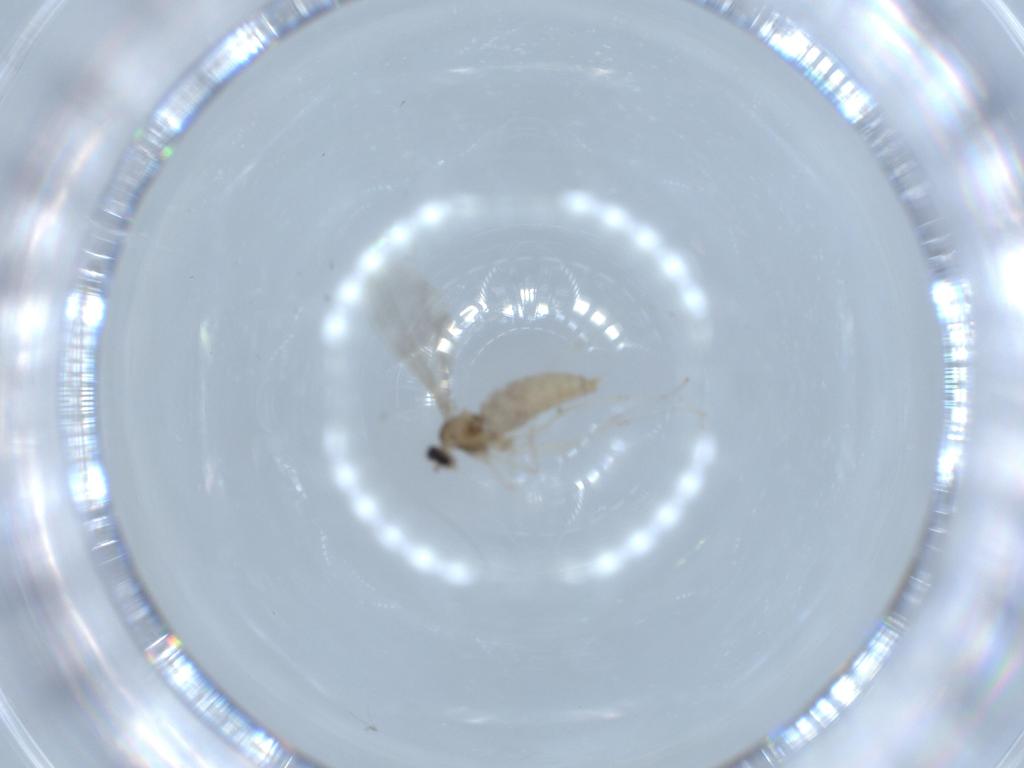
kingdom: Animalia
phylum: Arthropoda
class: Insecta
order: Diptera
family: Cecidomyiidae
